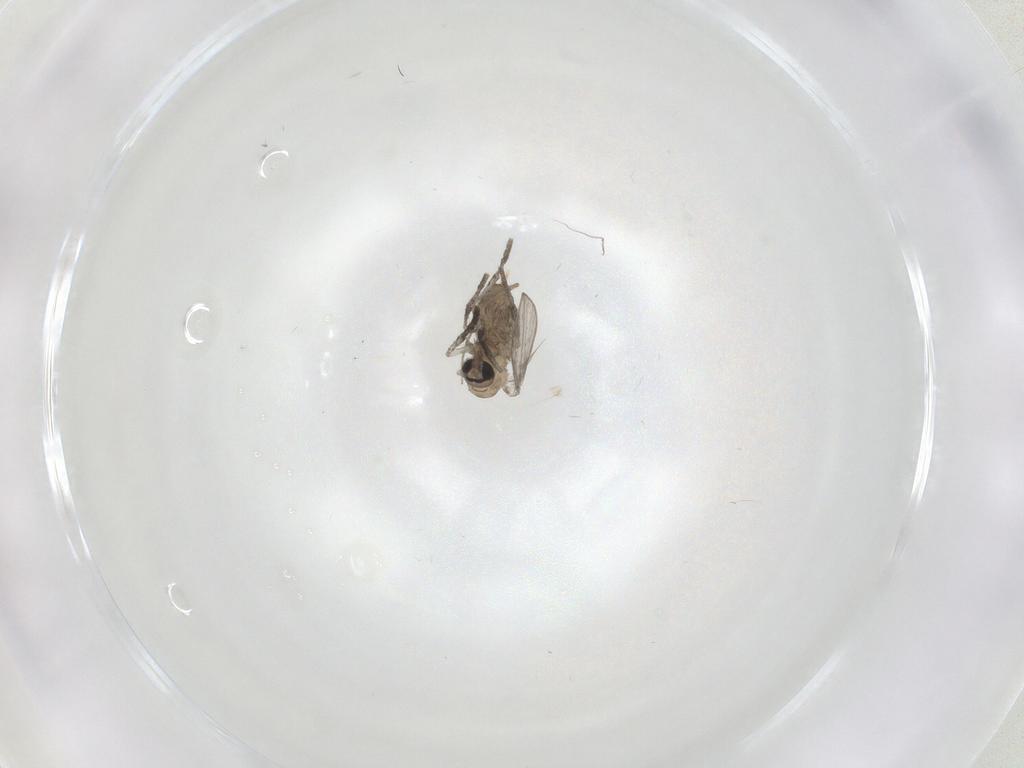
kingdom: Animalia
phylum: Arthropoda
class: Insecta
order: Diptera
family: Psychodidae
